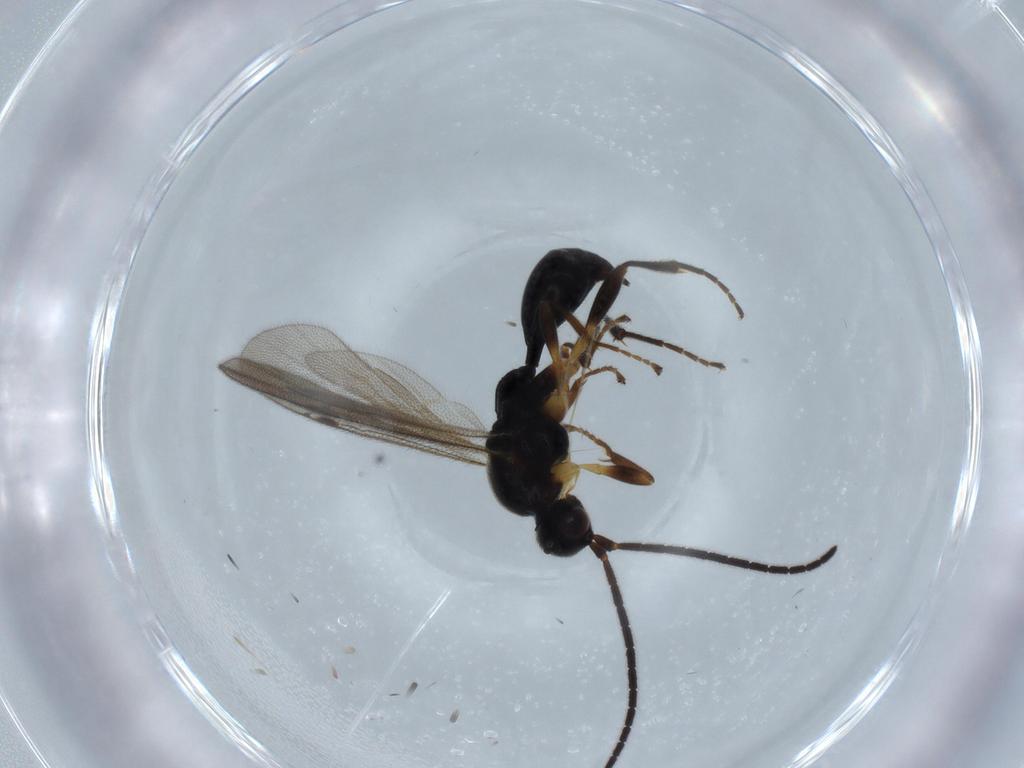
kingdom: Animalia
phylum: Arthropoda
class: Insecta
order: Hymenoptera
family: Proctotrupidae
